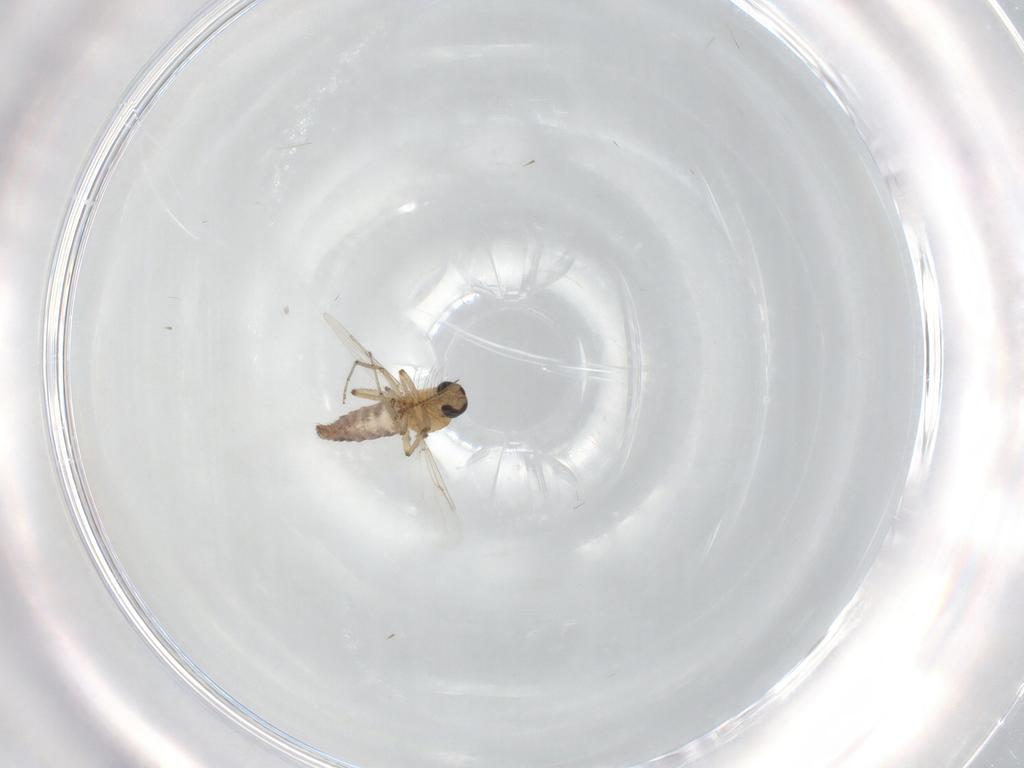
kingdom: Animalia
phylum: Arthropoda
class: Insecta
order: Diptera
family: Ceratopogonidae
